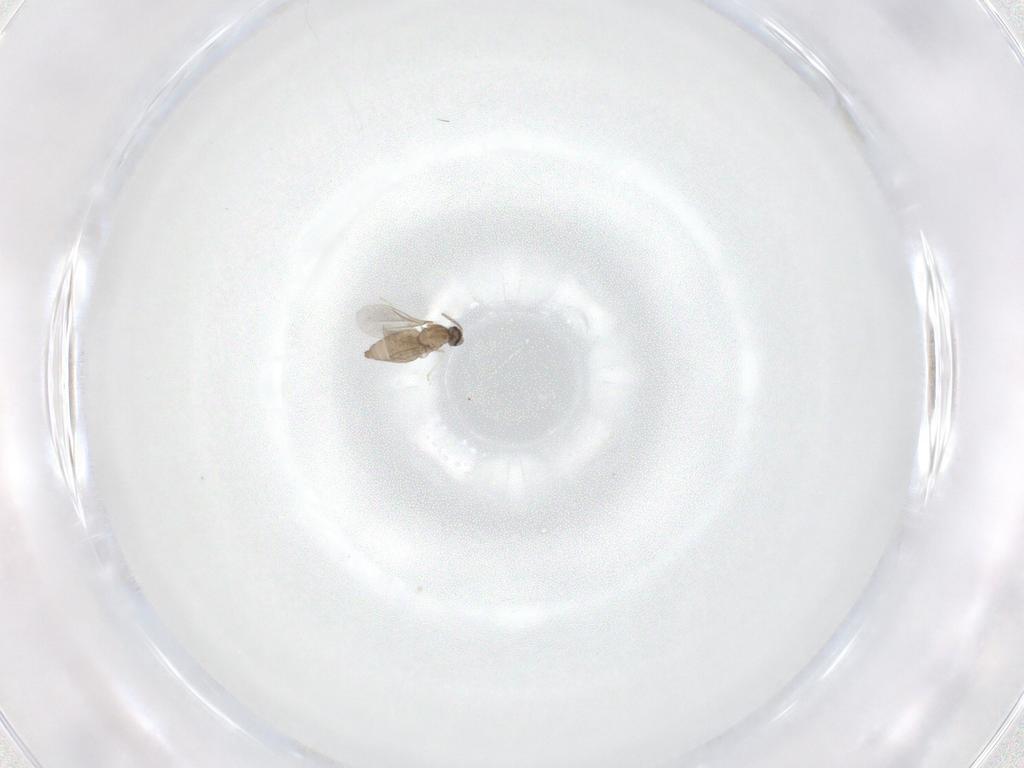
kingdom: Animalia
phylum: Arthropoda
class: Insecta
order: Diptera
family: Cecidomyiidae
